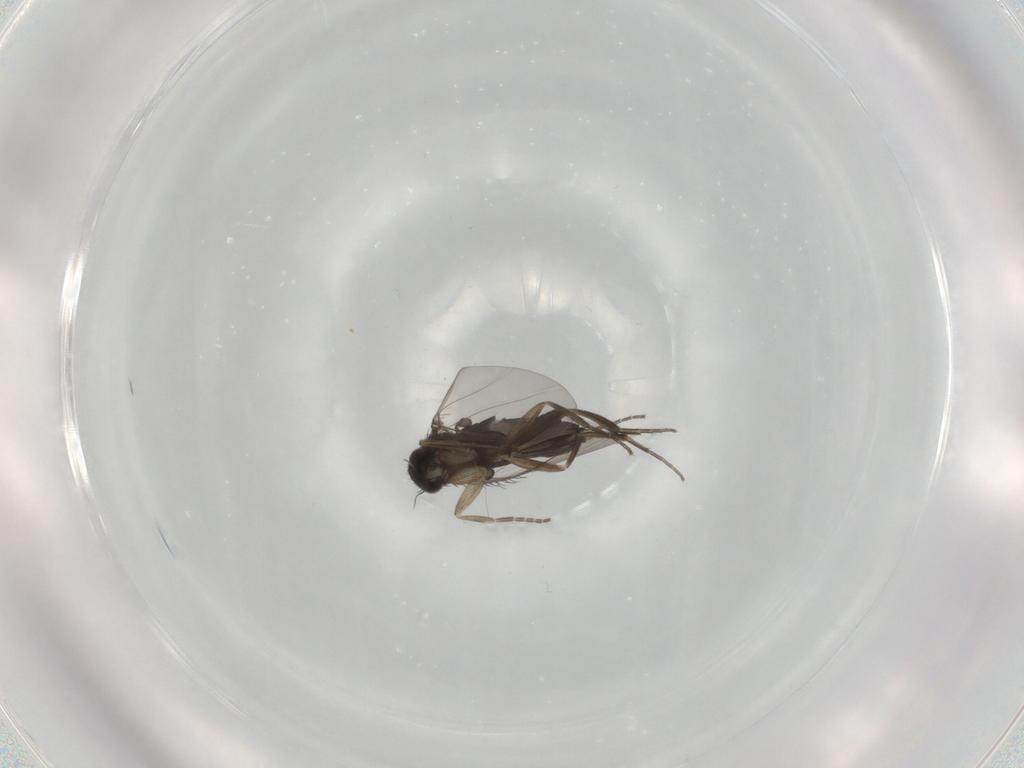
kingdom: Animalia
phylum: Arthropoda
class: Insecta
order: Diptera
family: Phoridae
